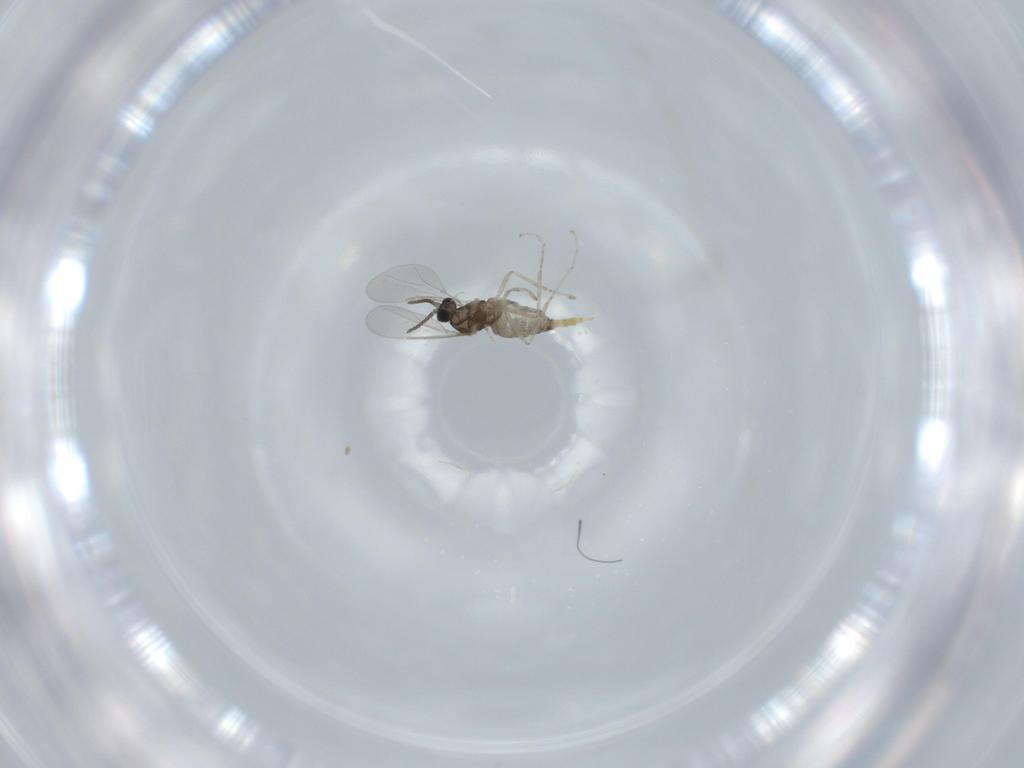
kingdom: Animalia
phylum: Arthropoda
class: Insecta
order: Diptera
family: Cecidomyiidae
